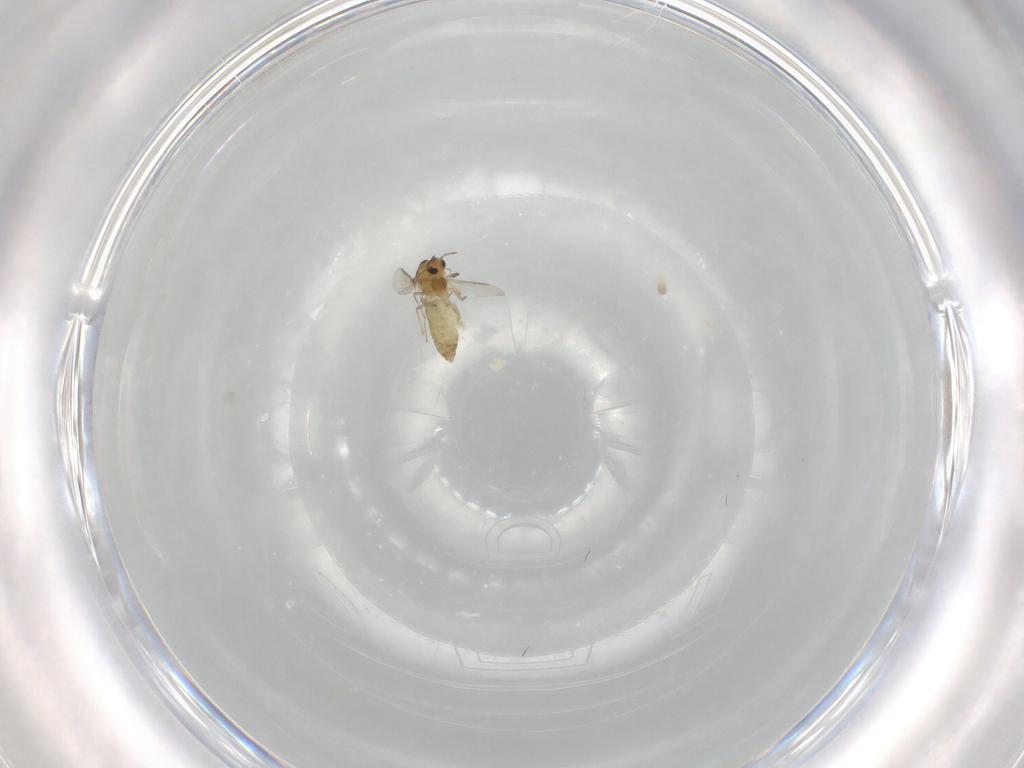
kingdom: Animalia
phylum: Arthropoda
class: Insecta
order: Diptera
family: Chironomidae
